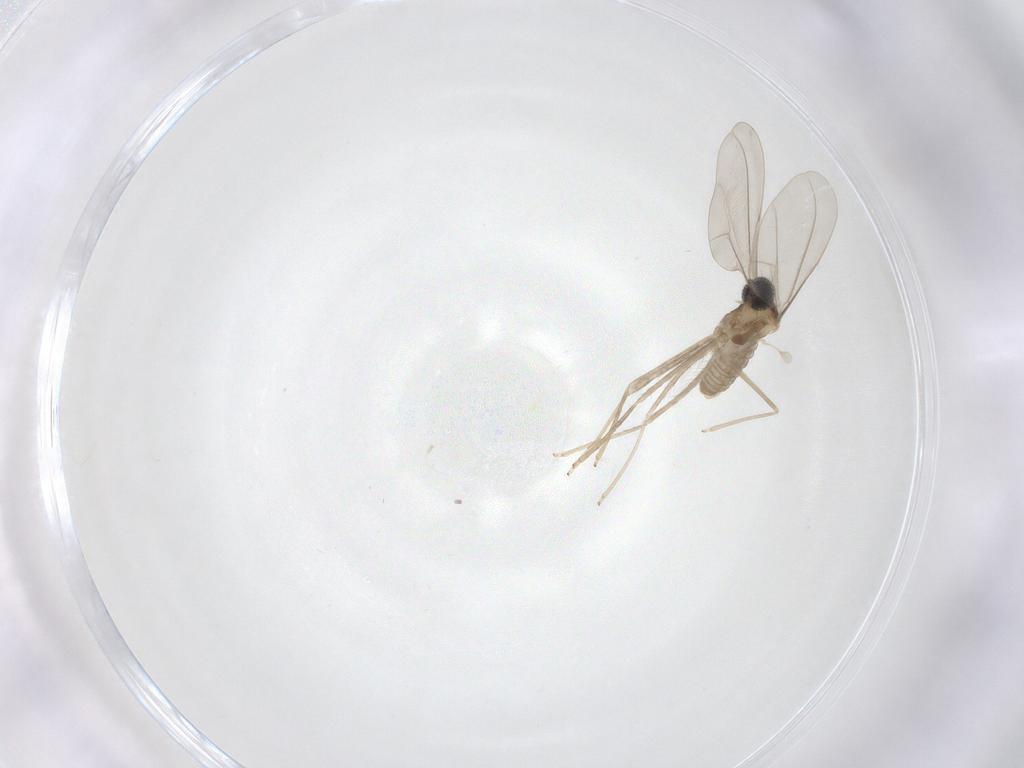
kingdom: Animalia
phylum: Arthropoda
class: Insecta
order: Diptera
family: Cecidomyiidae
